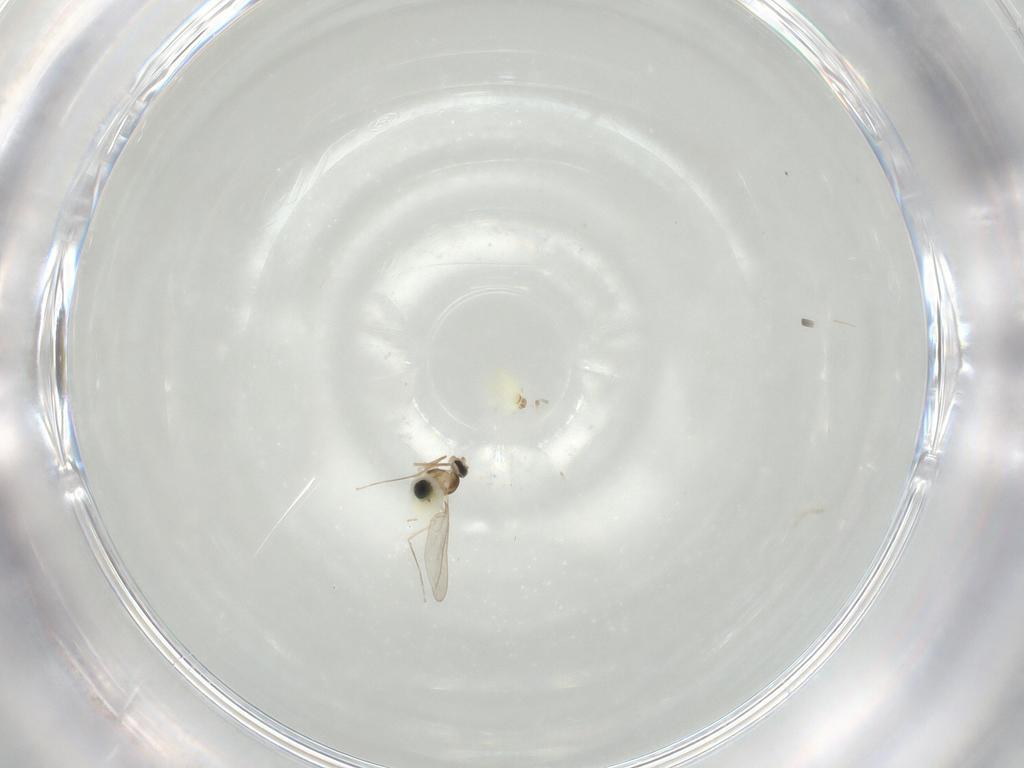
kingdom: Animalia
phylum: Arthropoda
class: Insecta
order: Diptera
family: Cecidomyiidae
